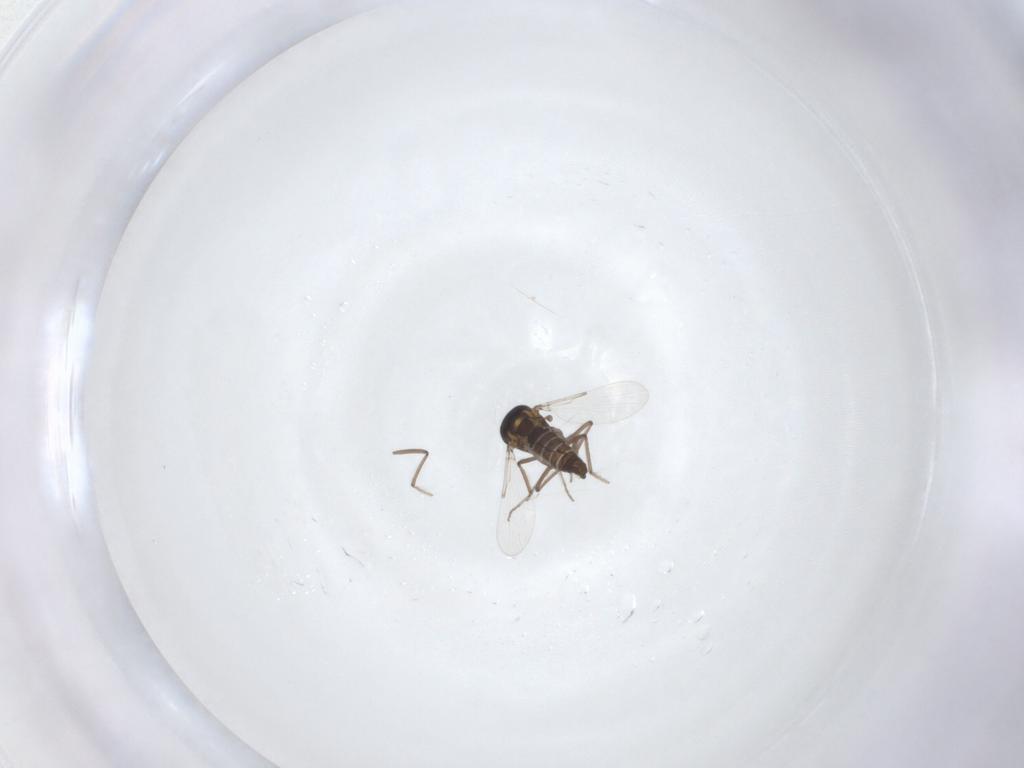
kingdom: Animalia
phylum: Arthropoda
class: Insecta
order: Diptera
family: Ceratopogonidae
